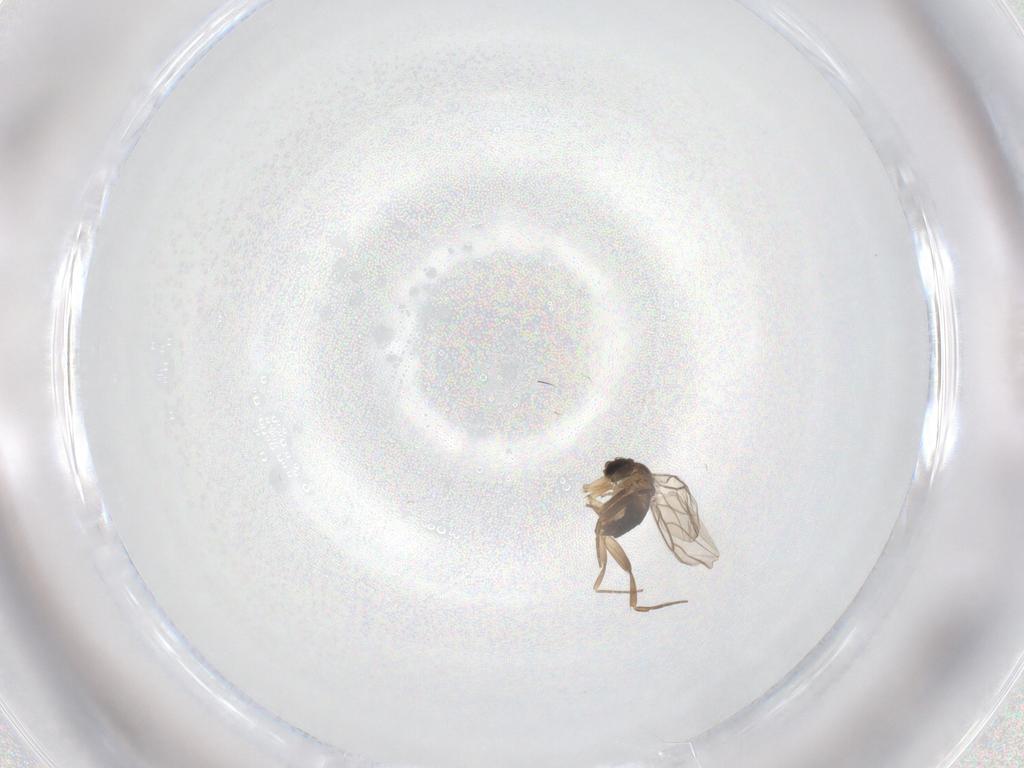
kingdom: Animalia
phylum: Arthropoda
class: Insecta
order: Diptera
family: Phoridae
